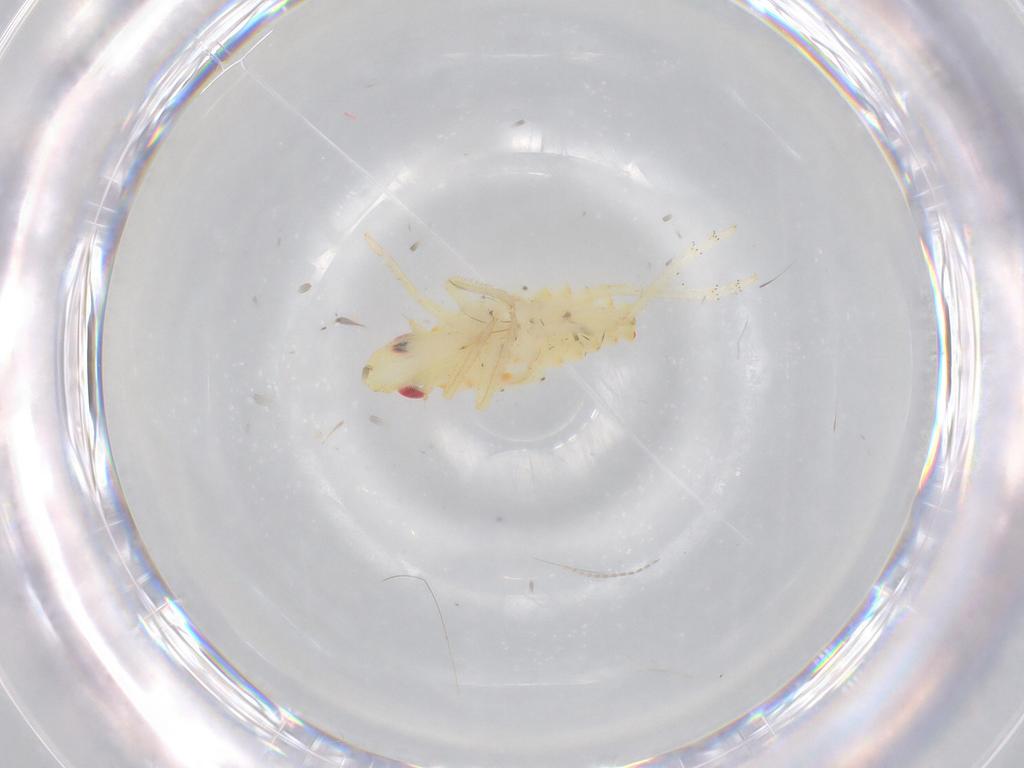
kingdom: Animalia
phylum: Arthropoda
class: Insecta
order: Hemiptera
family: Tropiduchidae
